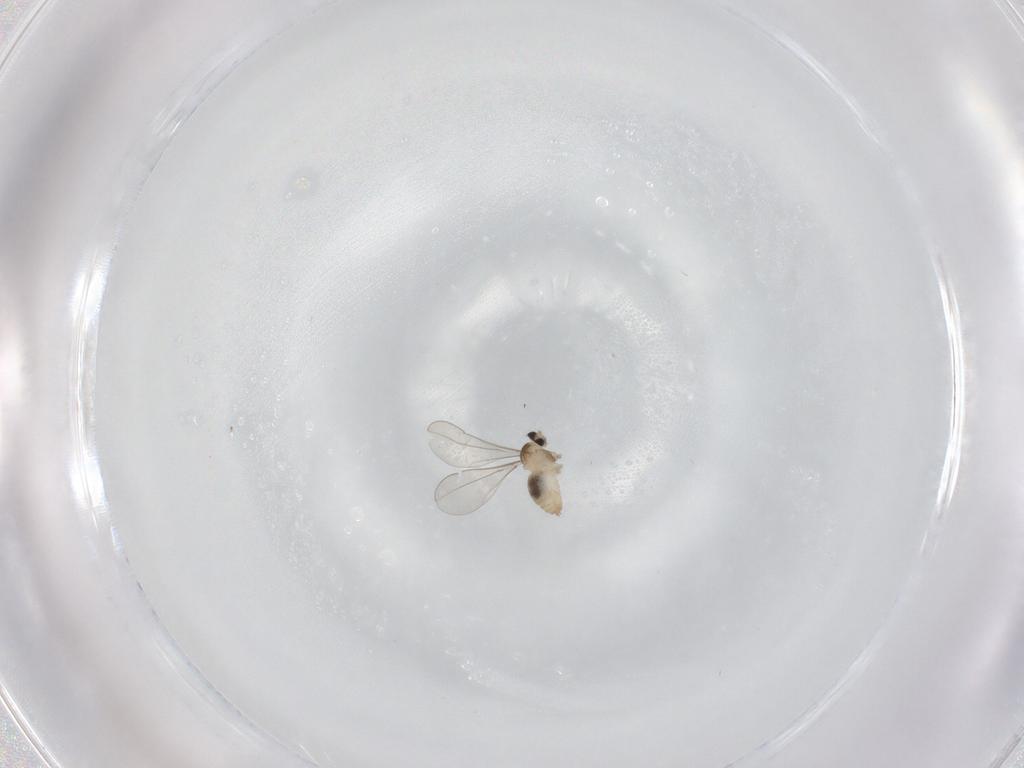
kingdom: Animalia
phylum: Arthropoda
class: Insecta
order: Diptera
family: Cecidomyiidae
